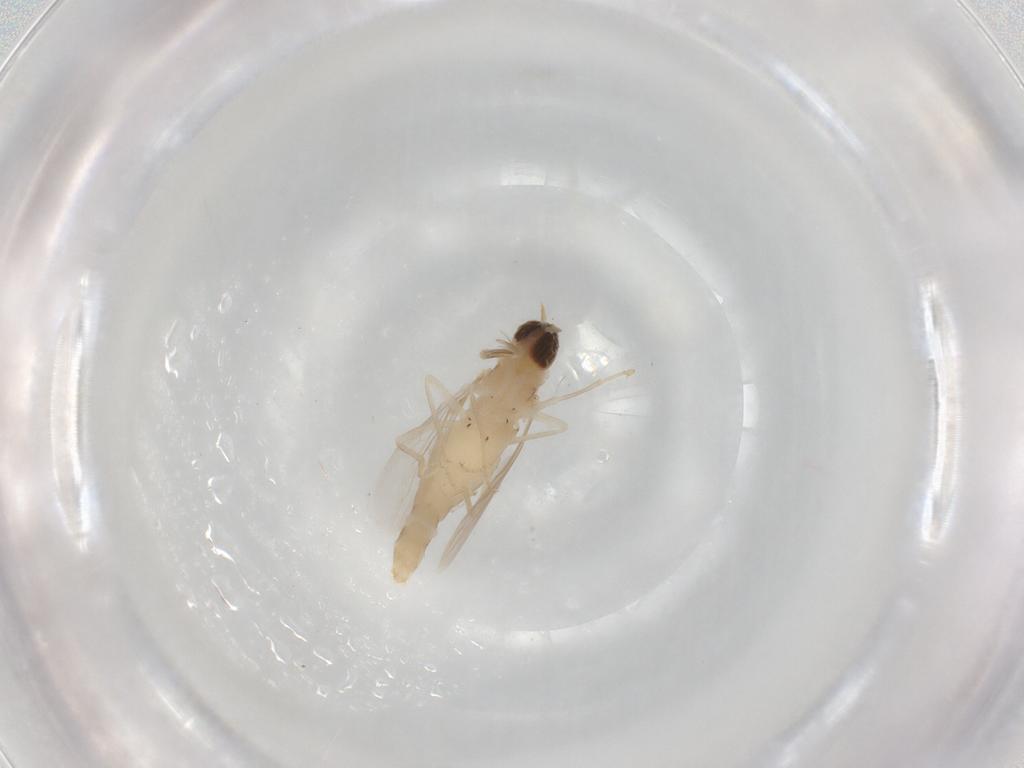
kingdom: Animalia
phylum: Arthropoda
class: Insecta
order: Diptera
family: Scenopinidae
